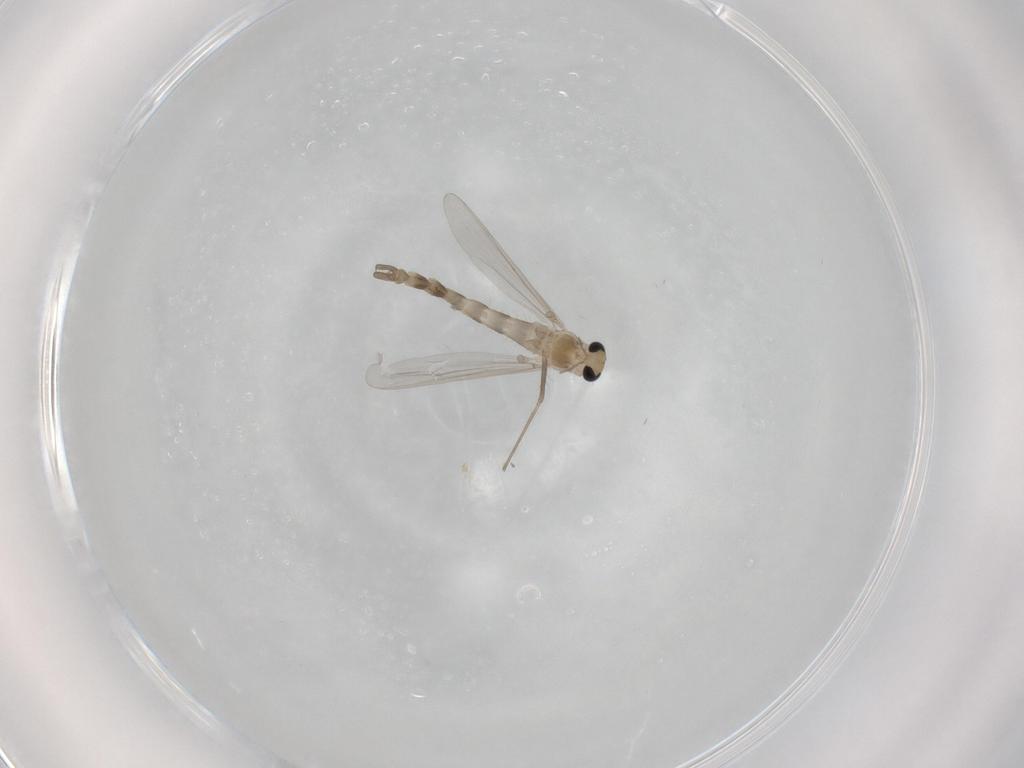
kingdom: Animalia
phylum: Arthropoda
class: Insecta
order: Diptera
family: Chironomidae
